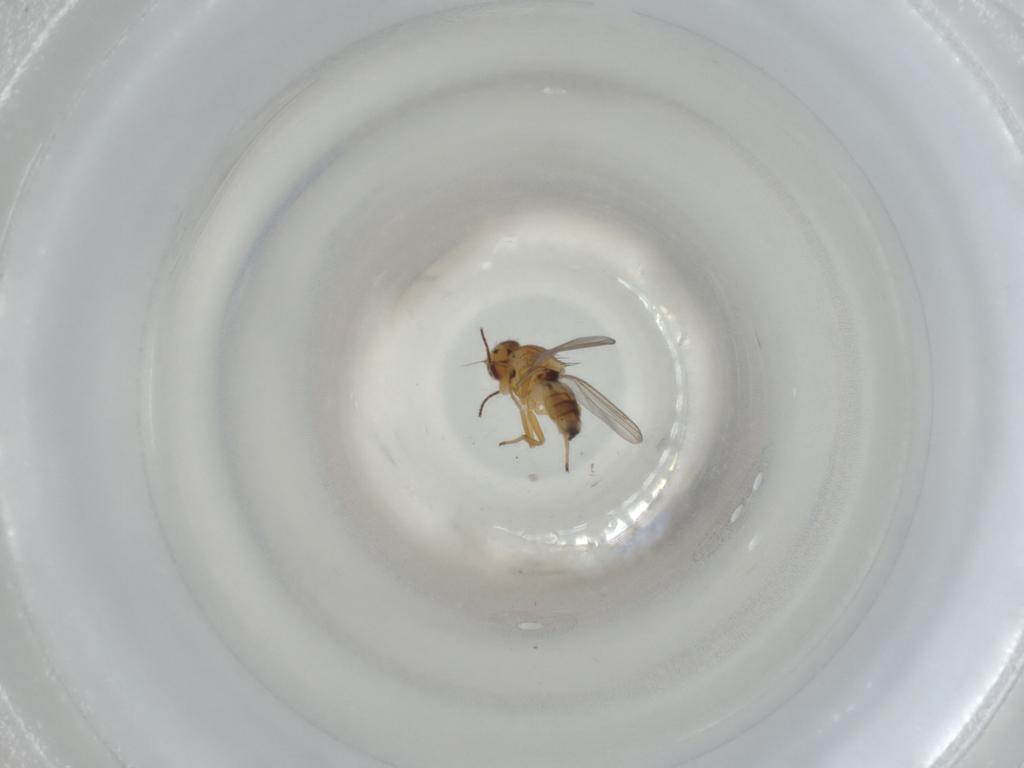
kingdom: Animalia
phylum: Arthropoda
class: Insecta
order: Diptera
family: Chloropidae
